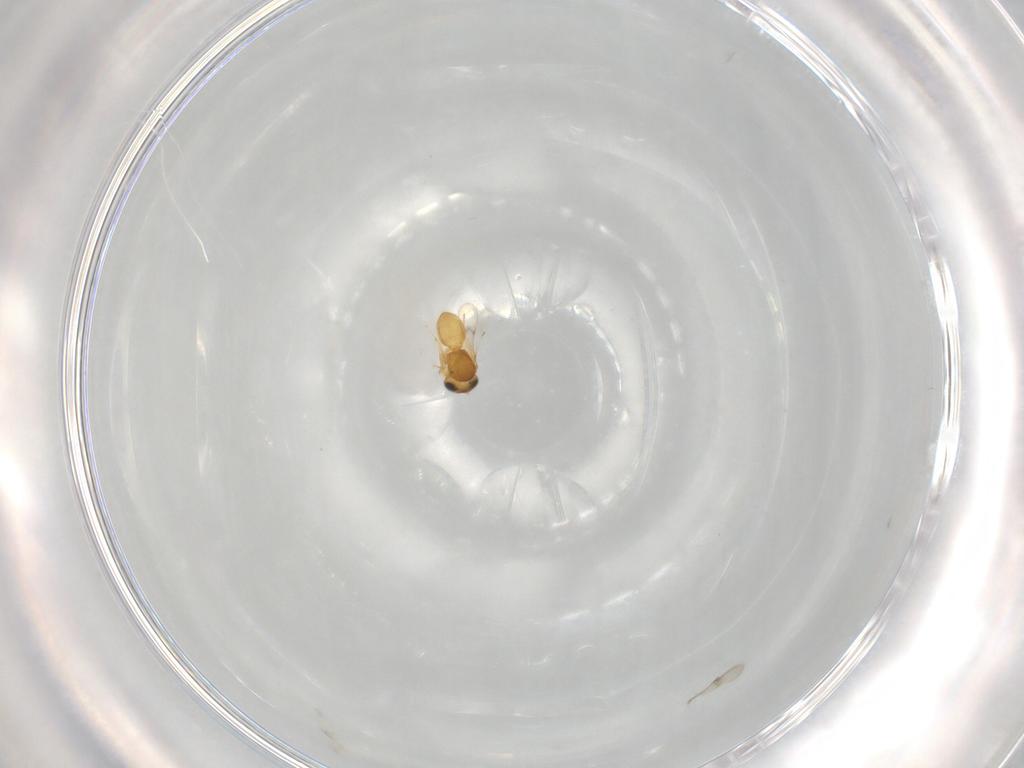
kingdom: Animalia
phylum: Arthropoda
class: Insecta
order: Hymenoptera
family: Scelionidae
